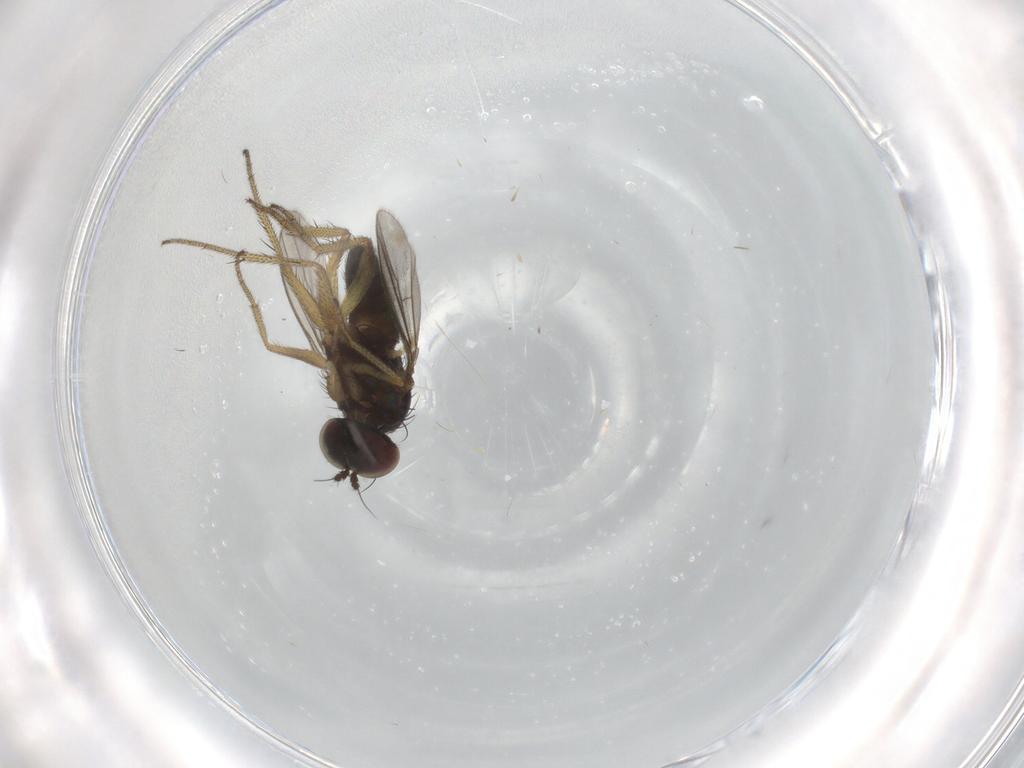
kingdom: Animalia
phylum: Arthropoda
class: Insecta
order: Diptera
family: Dolichopodidae
